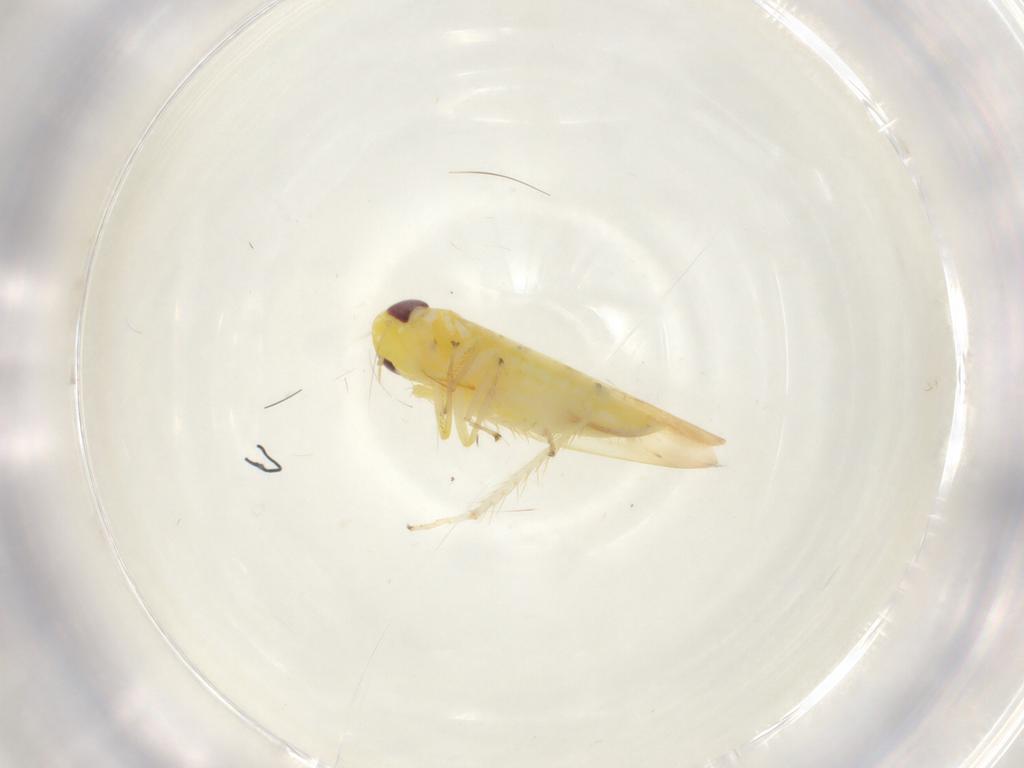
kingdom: Animalia
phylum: Arthropoda
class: Insecta
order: Hemiptera
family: Cicadellidae
